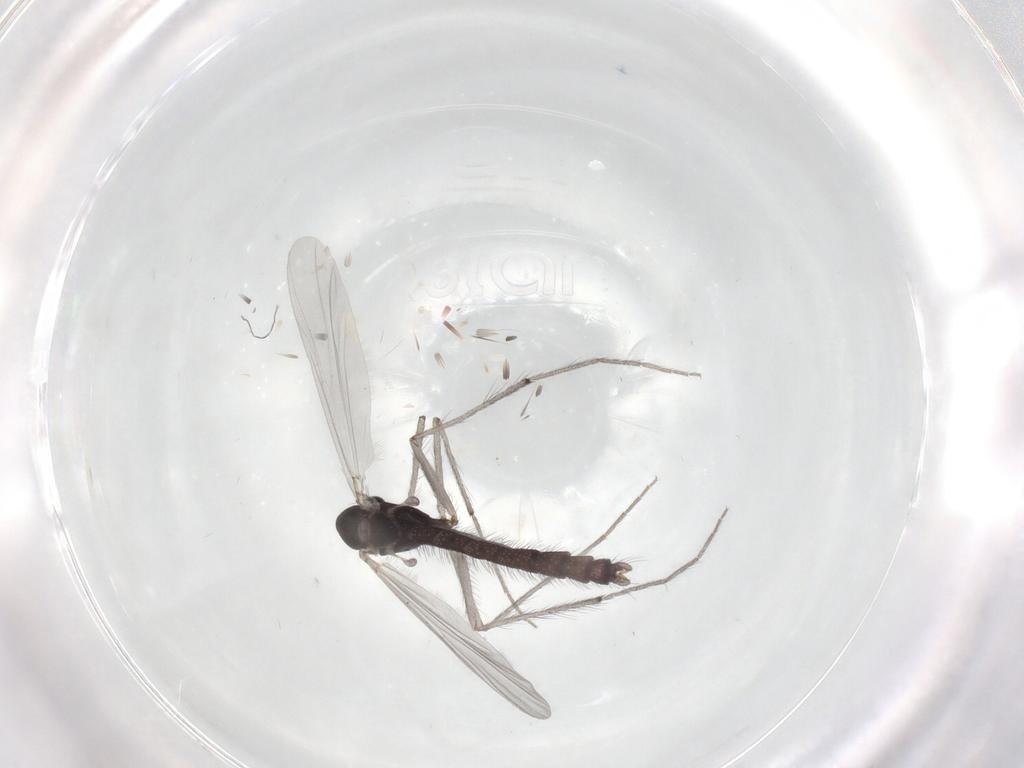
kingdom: Animalia
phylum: Arthropoda
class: Insecta
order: Diptera
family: Chironomidae
